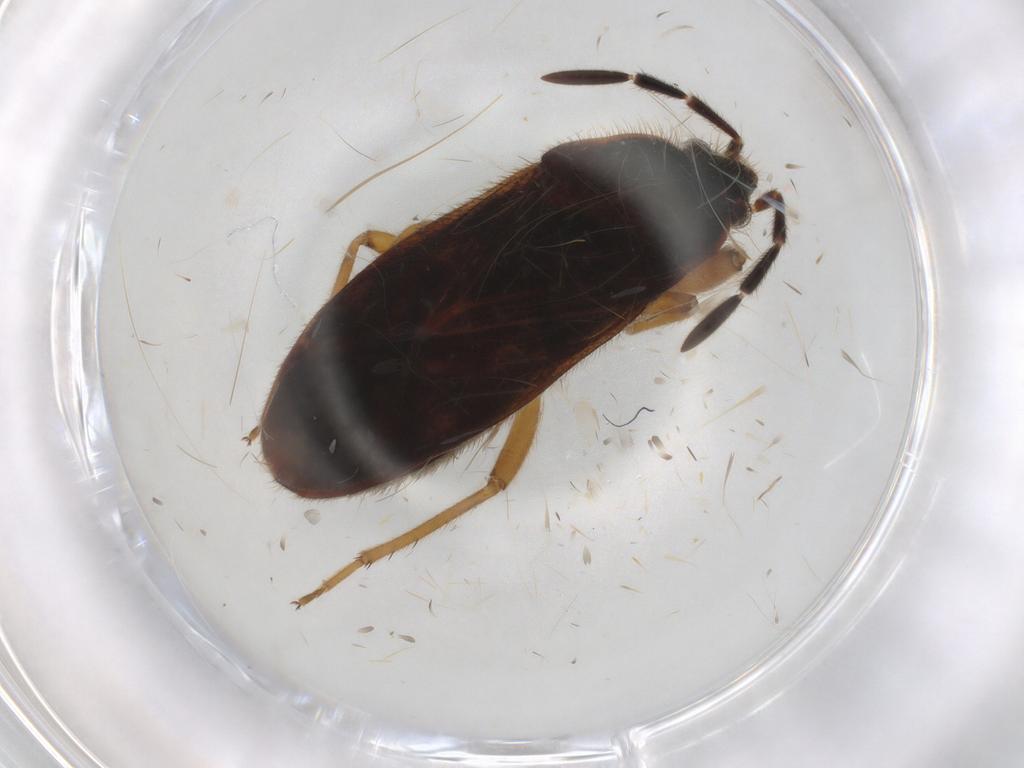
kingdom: Animalia
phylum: Arthropoda
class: Insecta
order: Hemiptera
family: Rhyparochromidae
